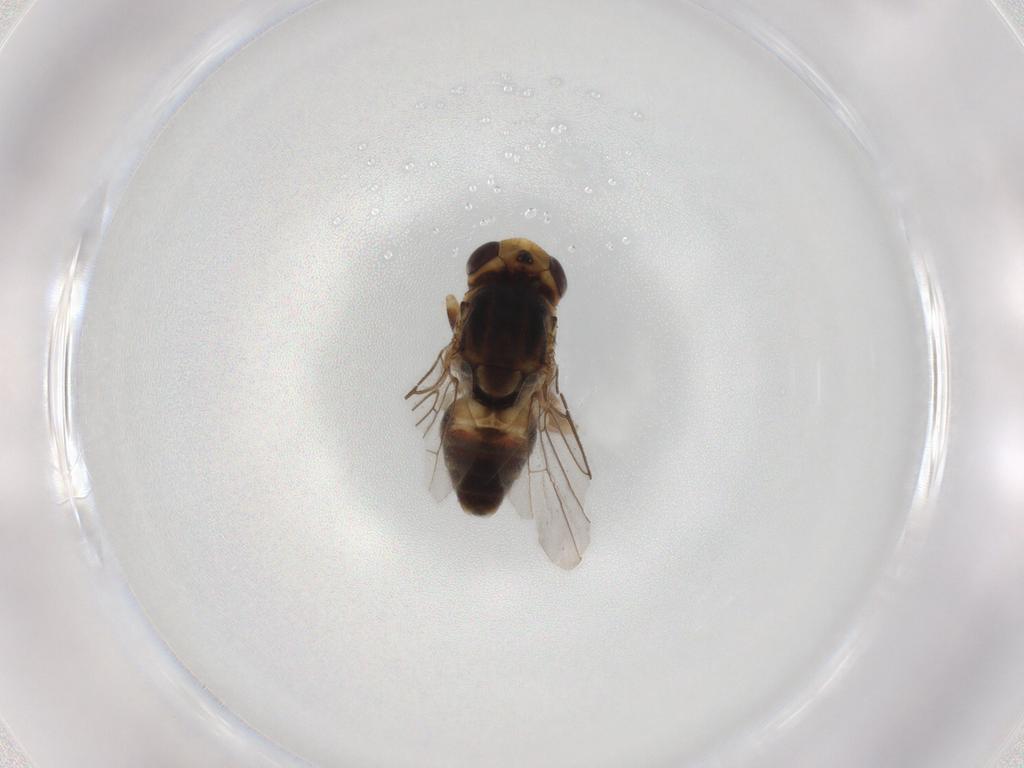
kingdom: Animalia
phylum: Arthropoda
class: Insecta
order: Diptera
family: Chloropidae
